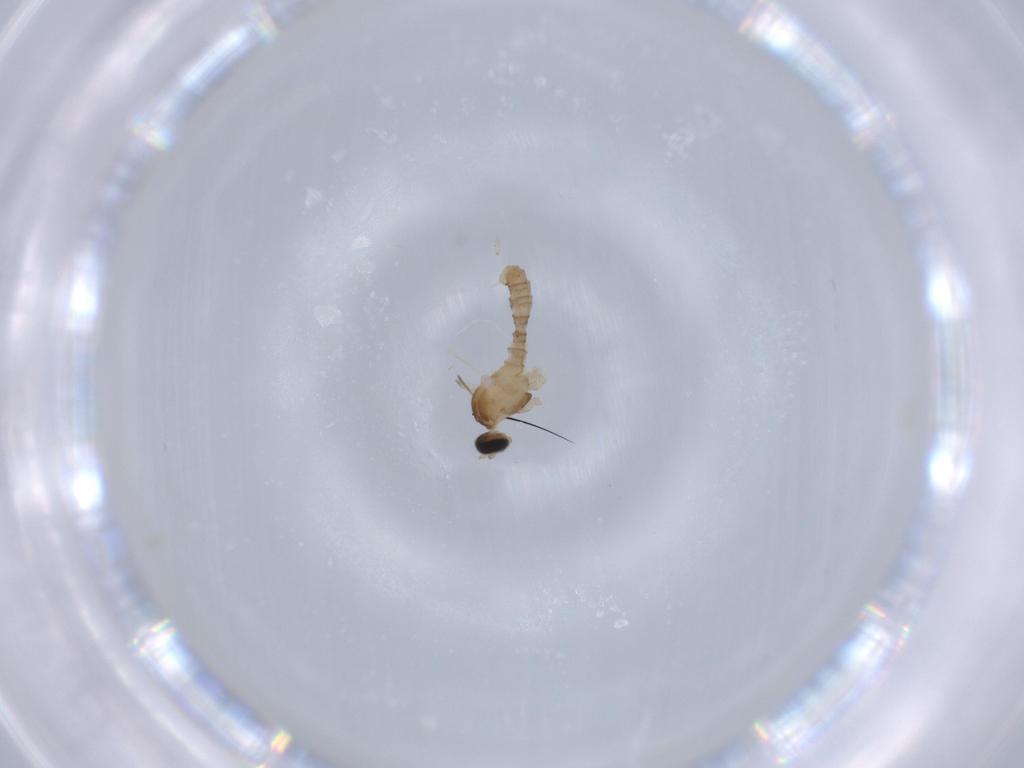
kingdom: Animalia
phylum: Arthropoda
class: Insecta
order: Diptera
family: Cecidomyiidae
